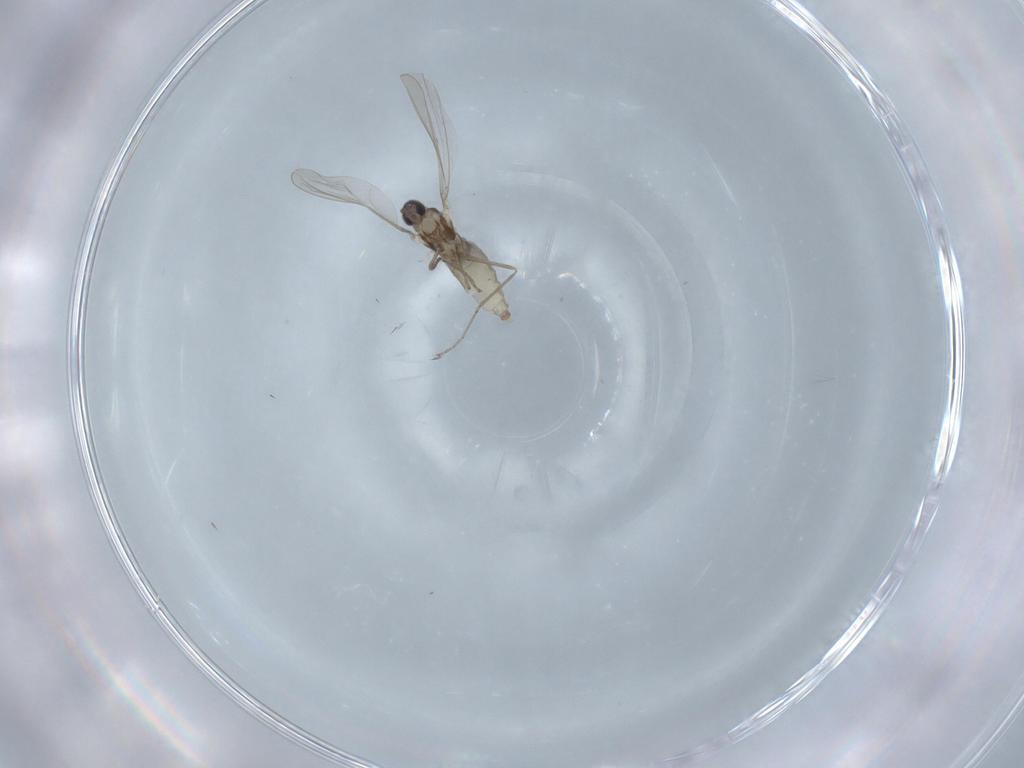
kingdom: Animalia
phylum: Arthropoda
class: Insecta
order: Diptera
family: Cecidomyiidae
